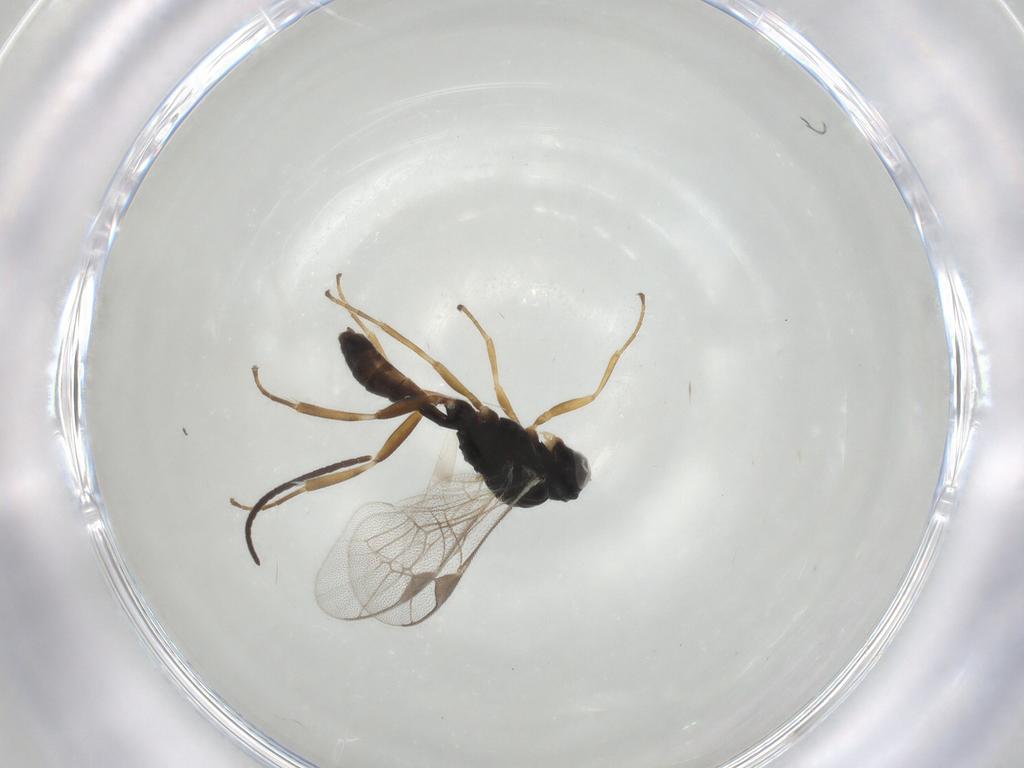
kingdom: Animalia
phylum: Arthropoda
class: Insecta
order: Hymenoptera
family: Ichneumonidae
